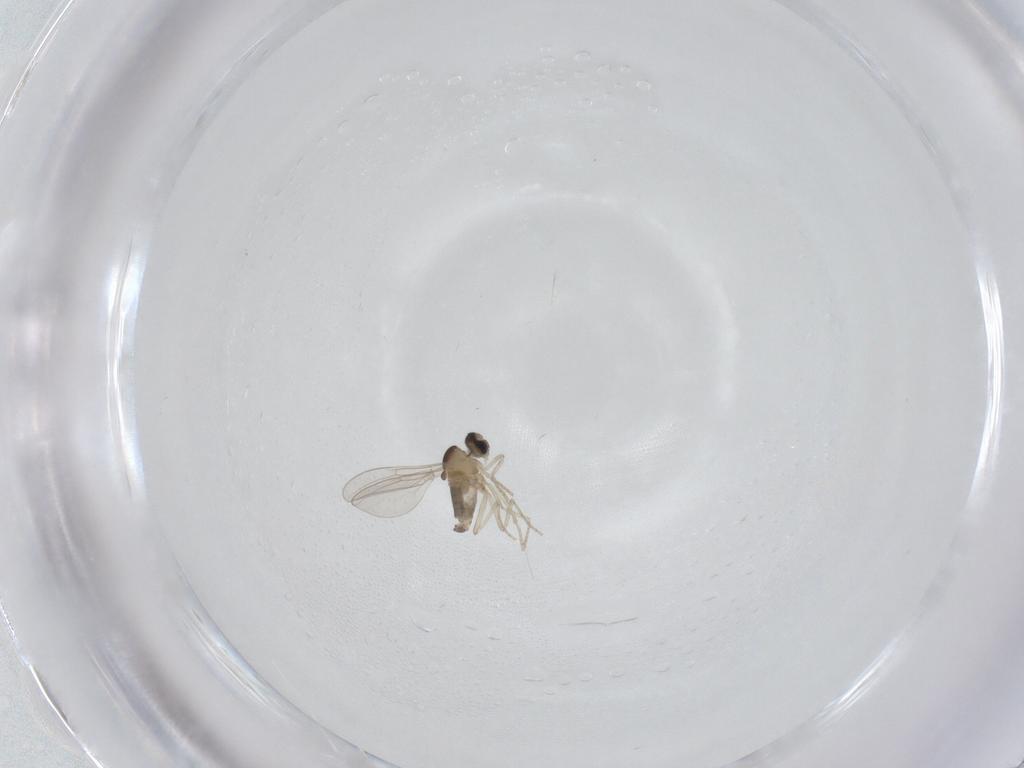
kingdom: Animalia
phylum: Arthropoda
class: Insecta
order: Diptera
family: Cecidomyiidae
